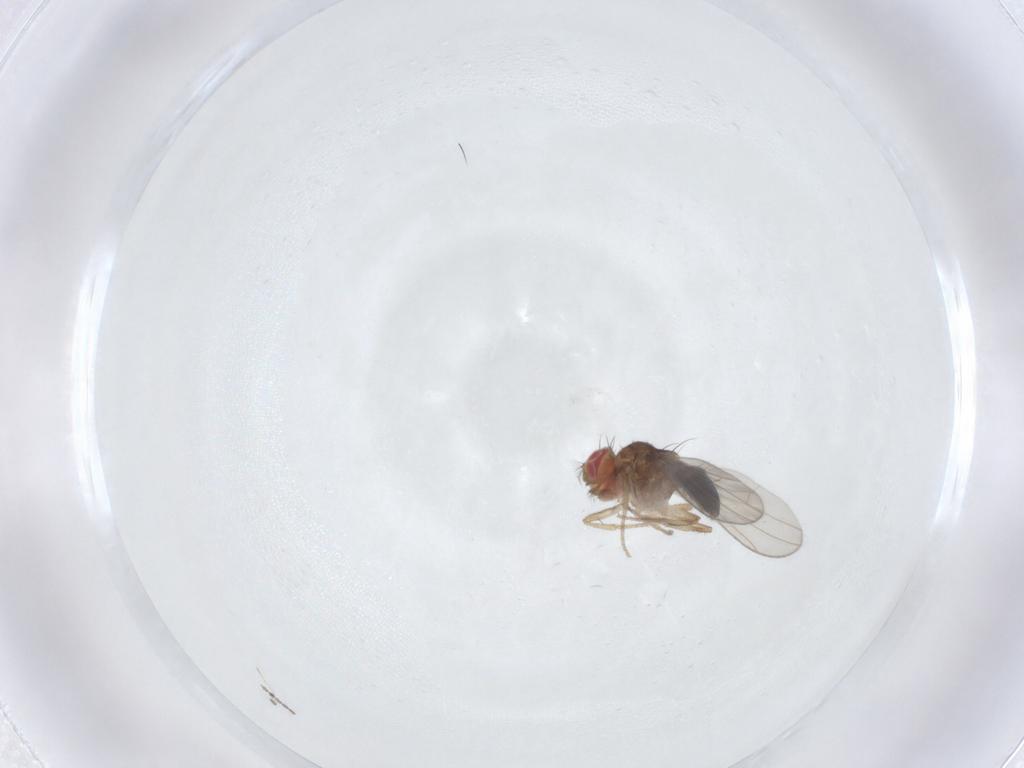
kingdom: Animalia
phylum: Arthropoda
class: Insecta
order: Diptera
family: Drosophilidae
